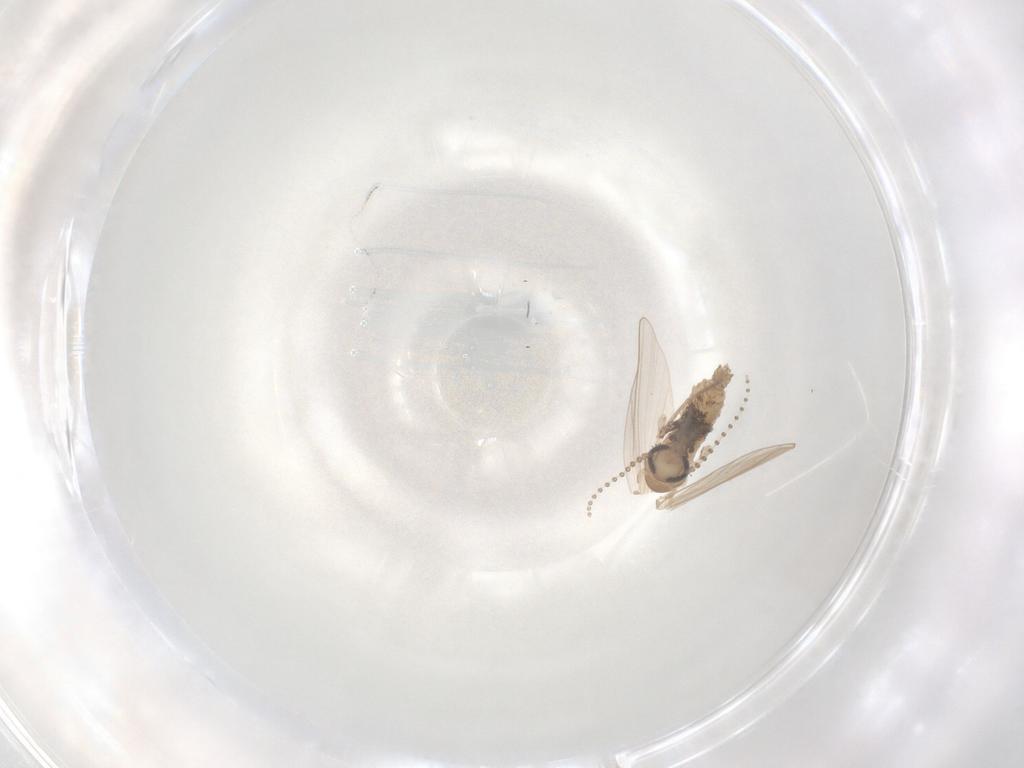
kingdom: Animalia
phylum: Arthropoda
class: Insecta
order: Diptera
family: Psychodidae
